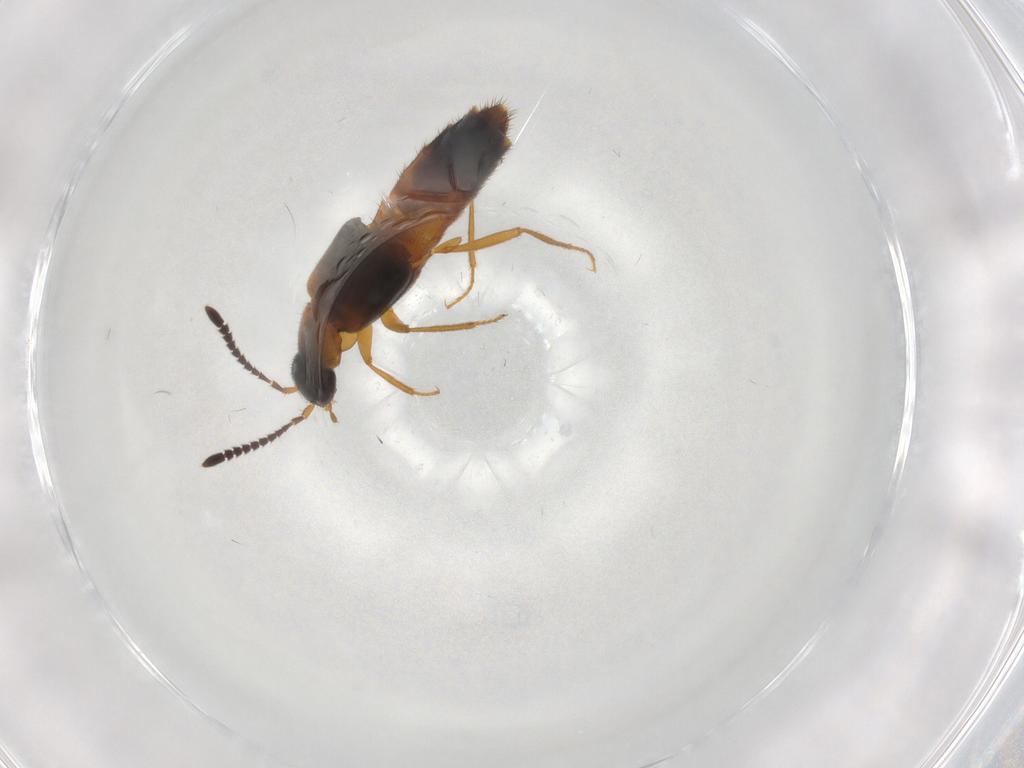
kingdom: Animalia
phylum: Arthropoda
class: Insecta
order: Coleoptera
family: Staphylinidae
